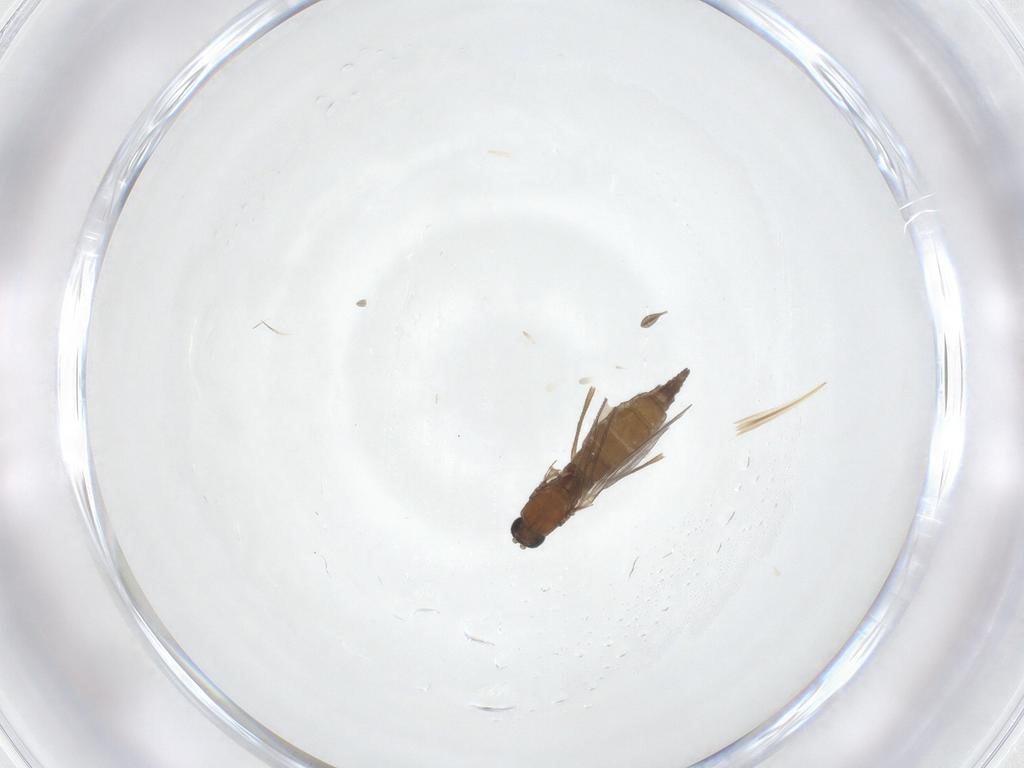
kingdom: Animalia
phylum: Arthropoda
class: Insecta
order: Diptera
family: Sciaridae
